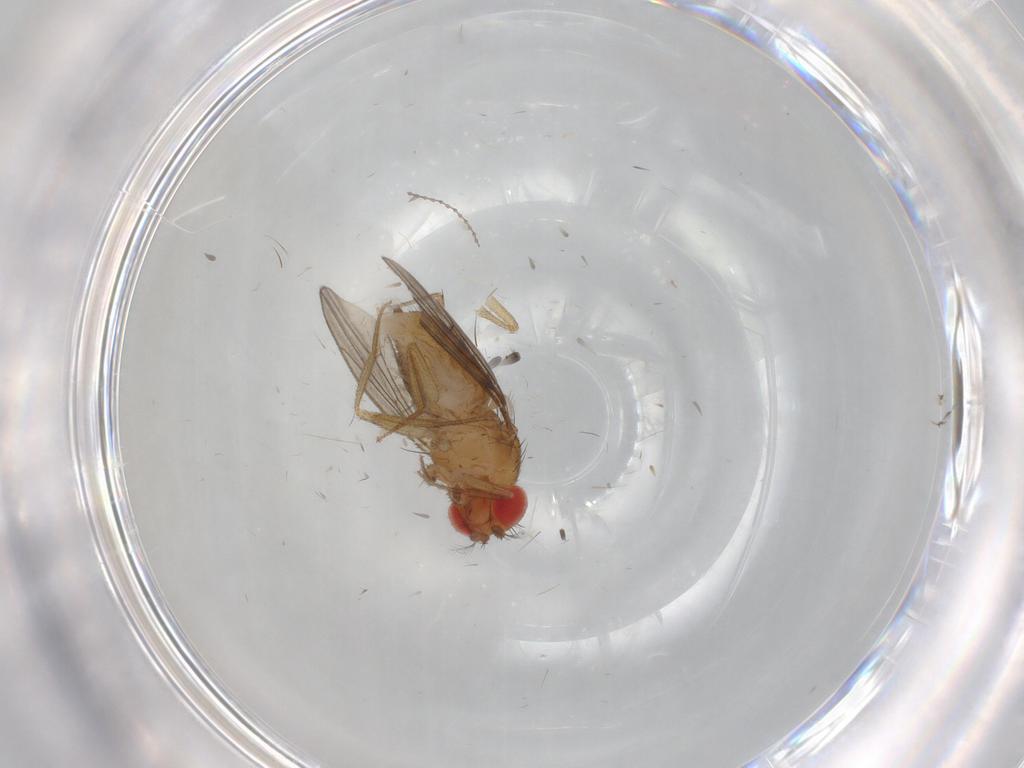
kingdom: Animalia
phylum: Arthropoda
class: Insecta
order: Diptera
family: Drosophilidae
